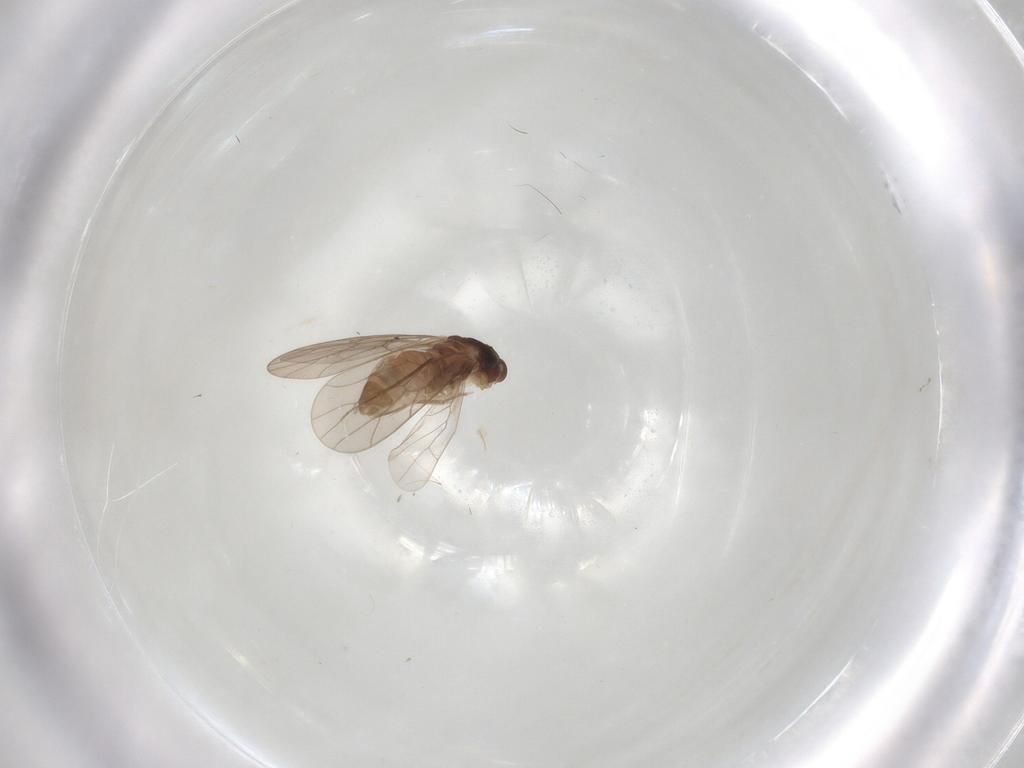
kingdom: Animalia
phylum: Arthropoda
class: Insecta
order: Psocodea
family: Lepidopsocidae
